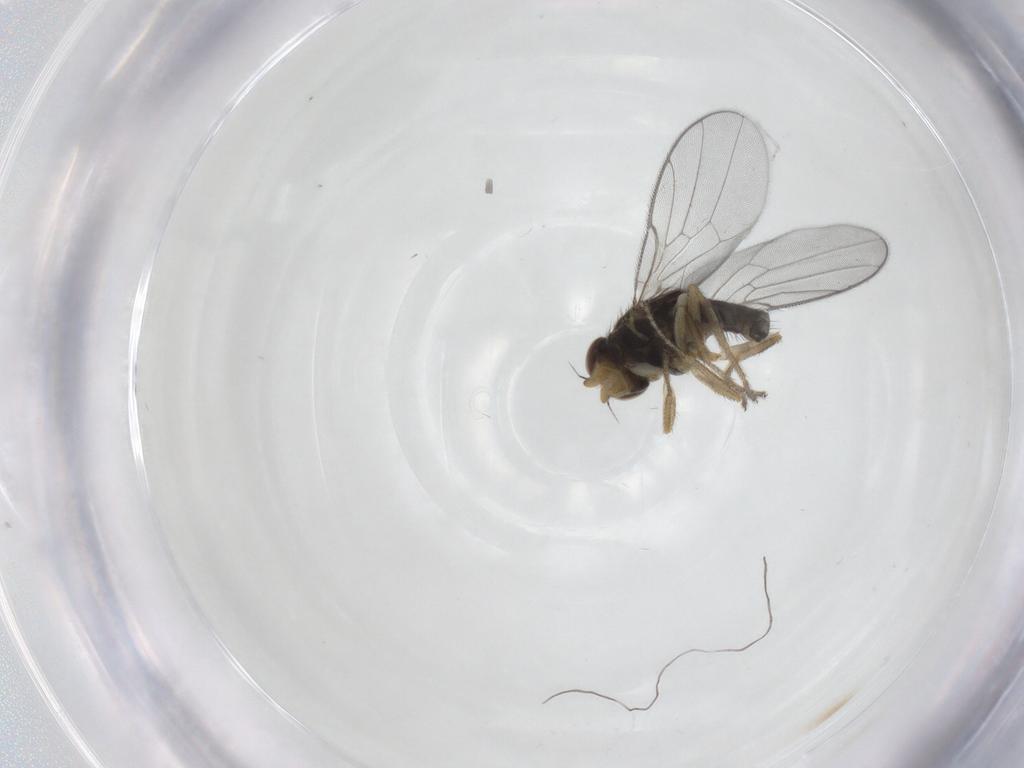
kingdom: Animalia
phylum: Arthropoda
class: Insecta
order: Diptera
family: Chloropidae
